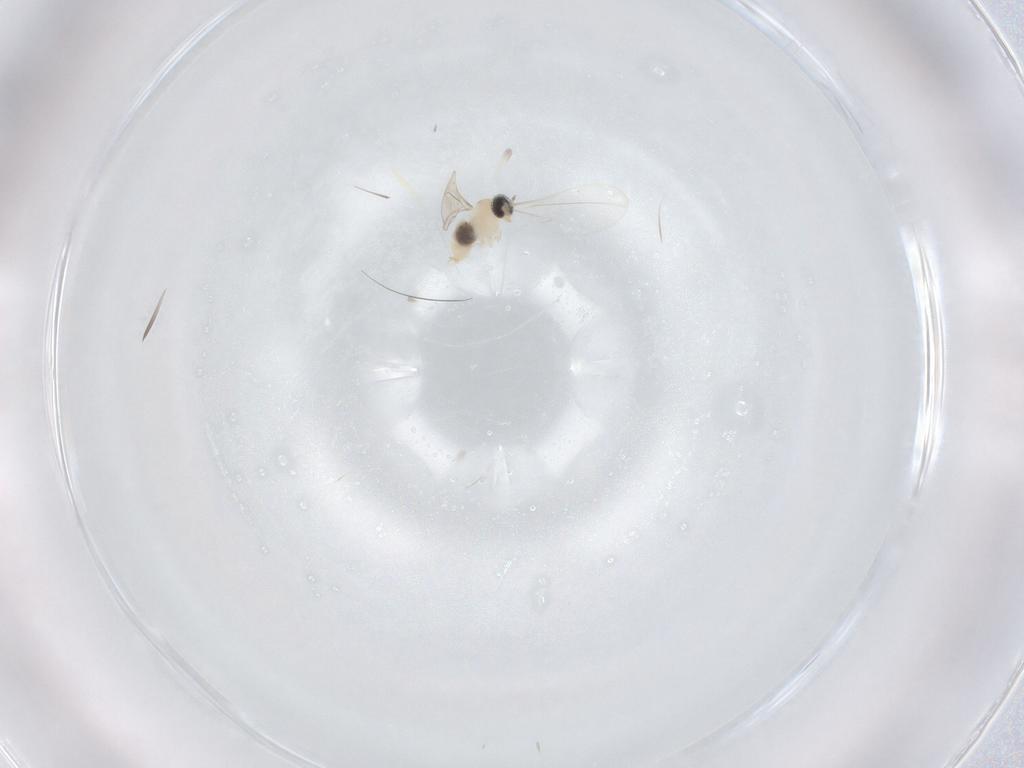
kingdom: Animalia
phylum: Arthropoda
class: Insecta
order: Diptera
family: Cecidomyiidae
